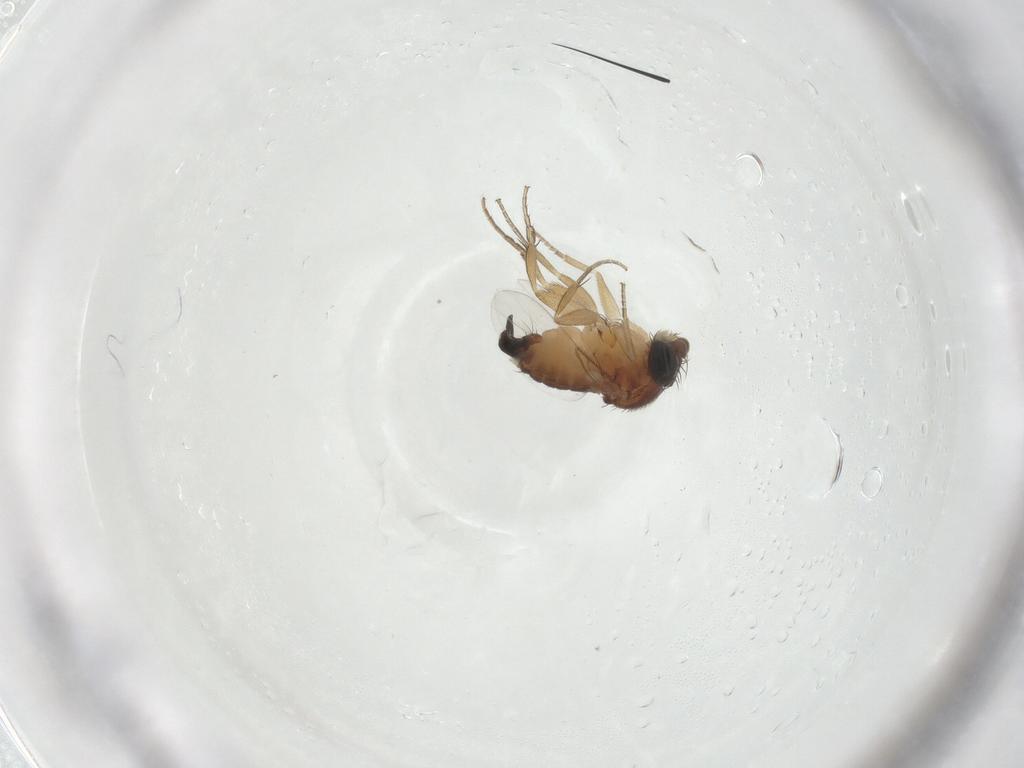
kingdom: Animalia
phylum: Arthropoda
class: Insecta
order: Diptera
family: Phoridae
